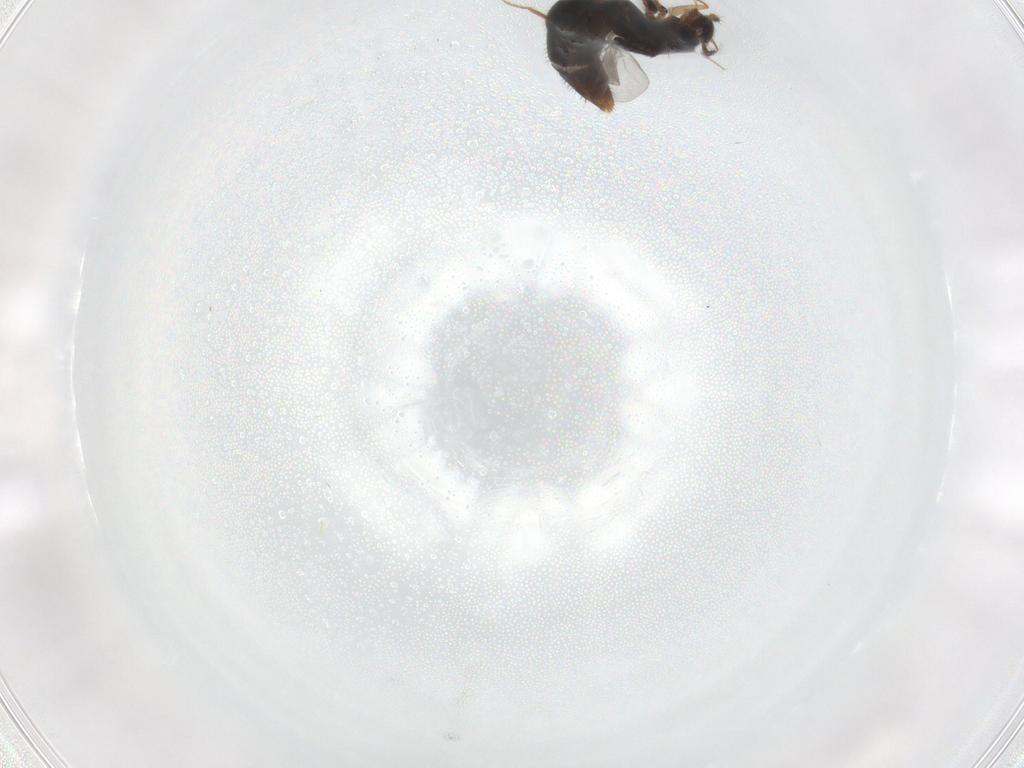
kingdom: Animalia
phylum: Arthropoda
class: Insecta
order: Coleoptera
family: Staphylinidae
